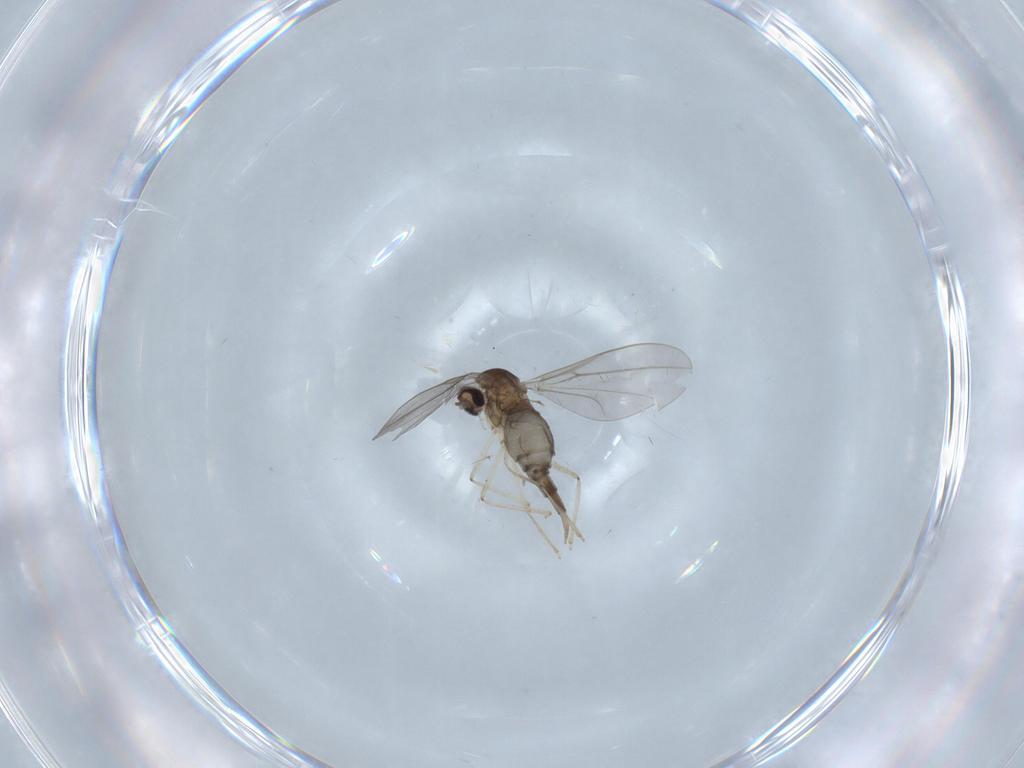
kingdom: Animalia
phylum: Arthropoda
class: Insecta
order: Diptera
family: Cecidomyiidae
